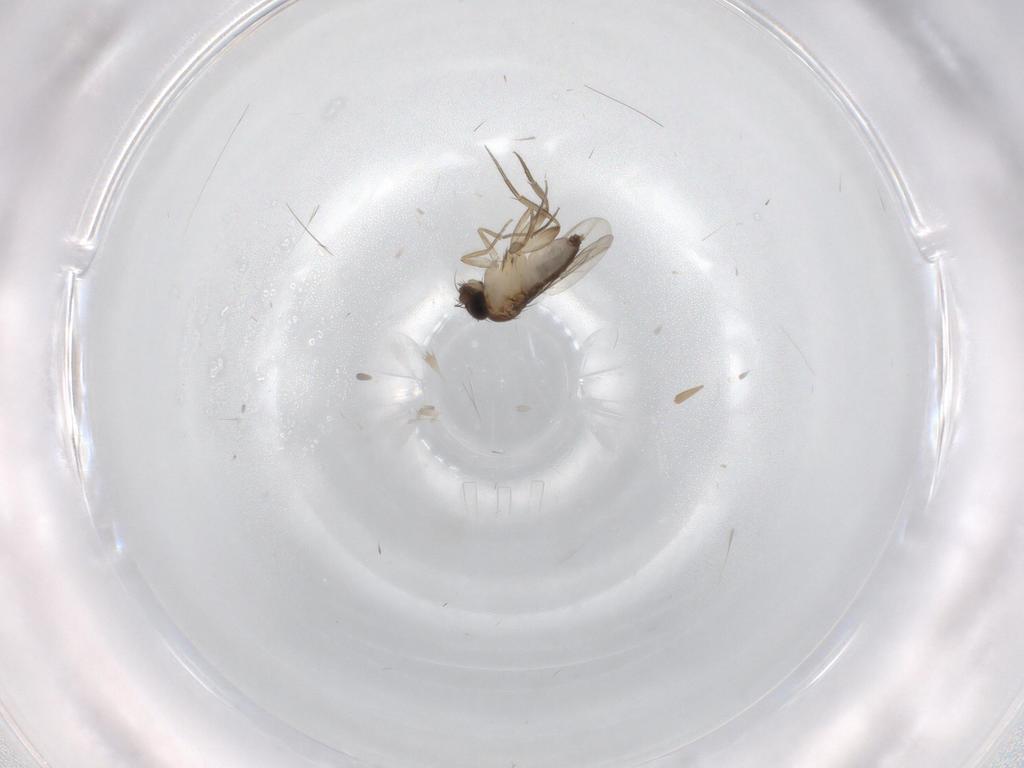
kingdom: Animalia
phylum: Arthropoda
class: Insecta
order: Diptera
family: Phoridae
